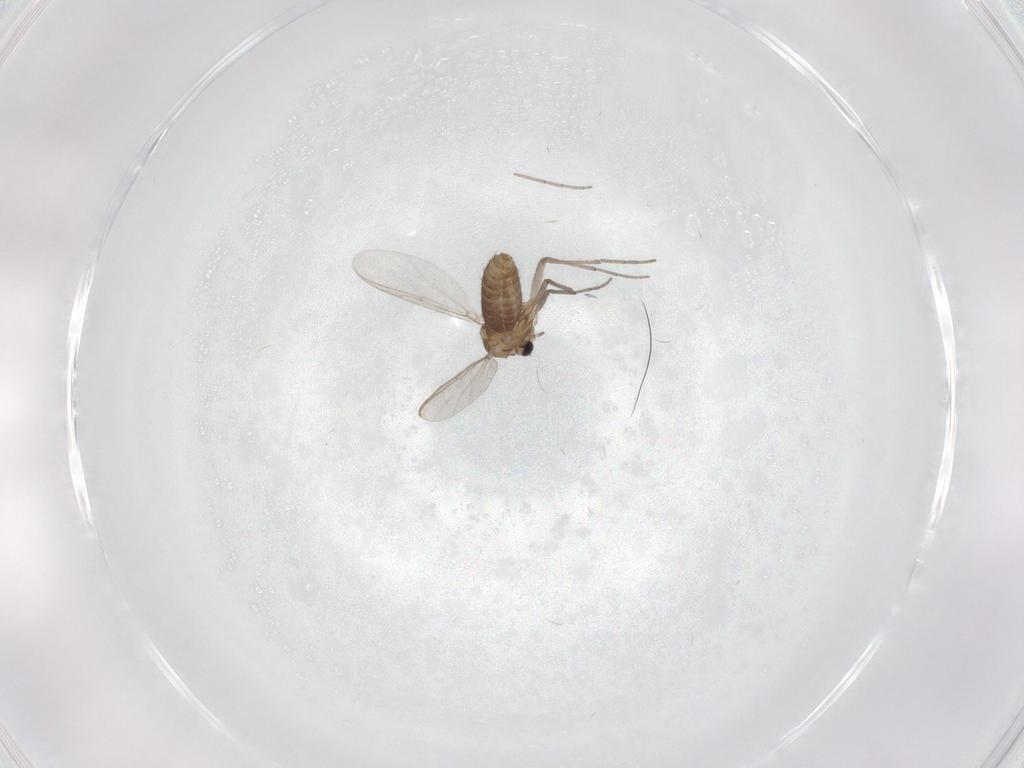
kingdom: Animalia
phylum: Arthropoda
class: Insecta
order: Diptera
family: Chironomidae
